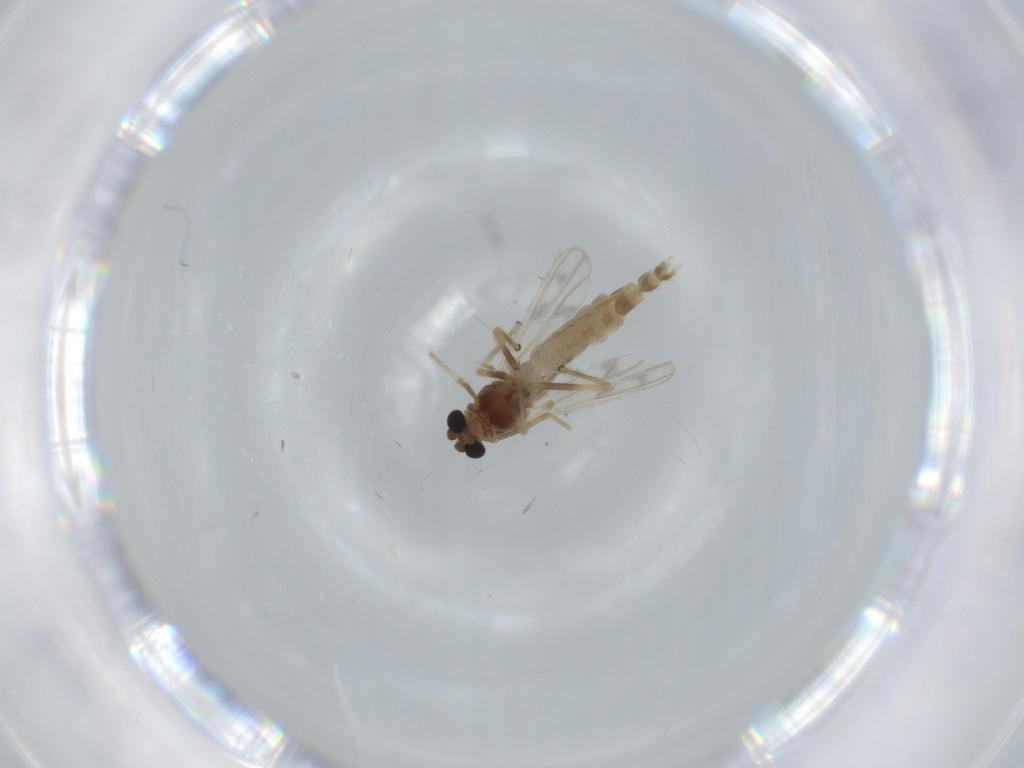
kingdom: Animalia
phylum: Arthropoda
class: Insecta
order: Diptera
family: Chironomidae
